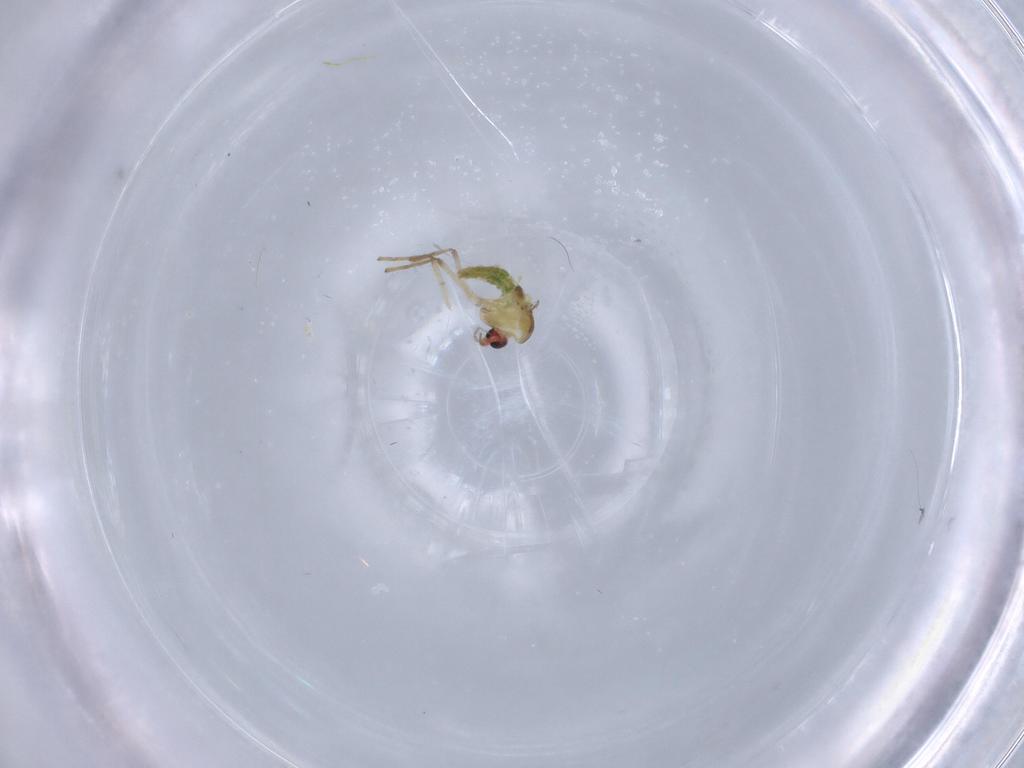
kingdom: Animalia
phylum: Arthropoda
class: Insecta
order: Diptera
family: Chironomidae
